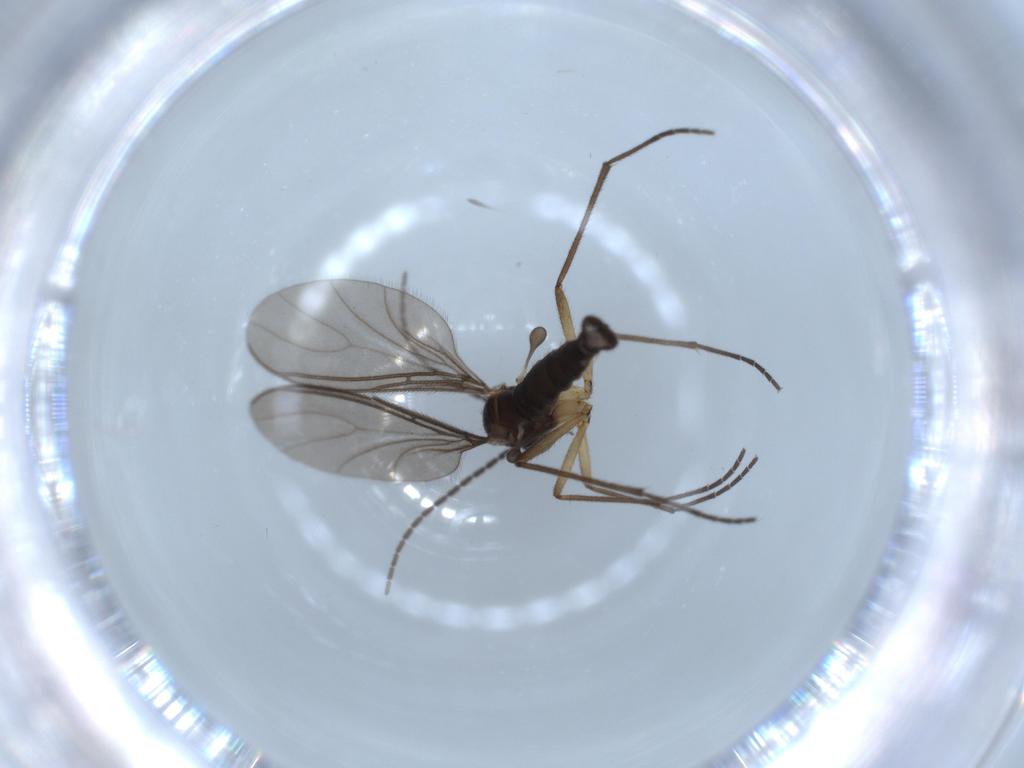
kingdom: Animalia
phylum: Arthropoda
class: Insecta
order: Diptera
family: Sciaridae
